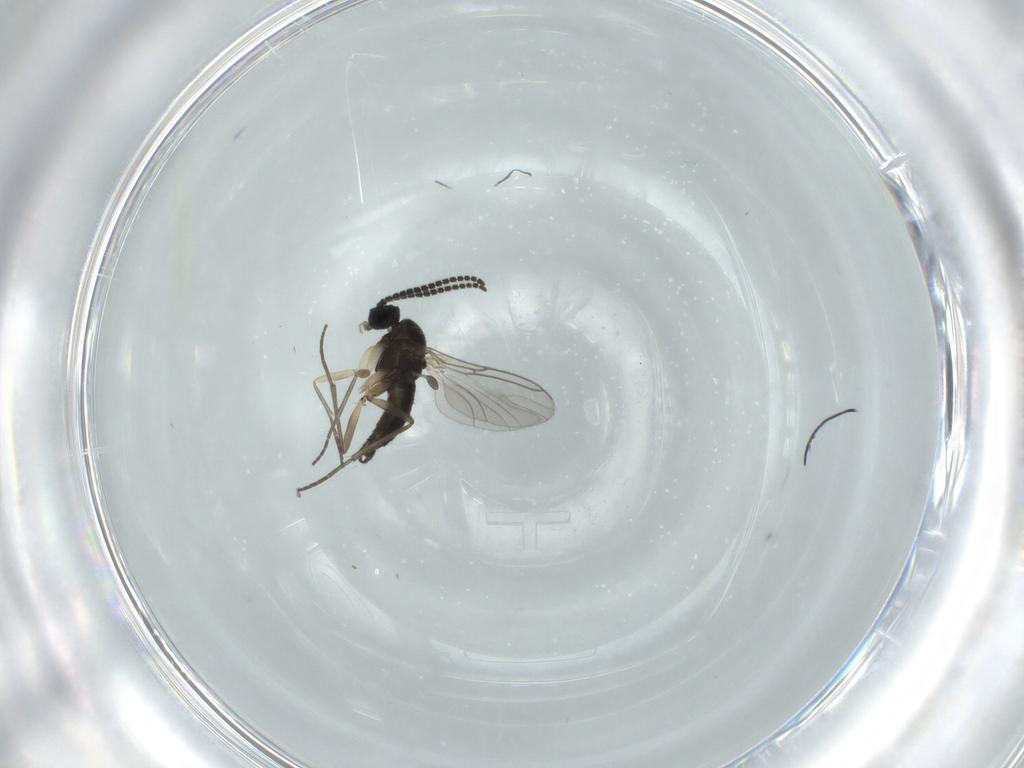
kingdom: Animalia
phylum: Arthropoda
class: Insecta
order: Diptera
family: Sciaridae
